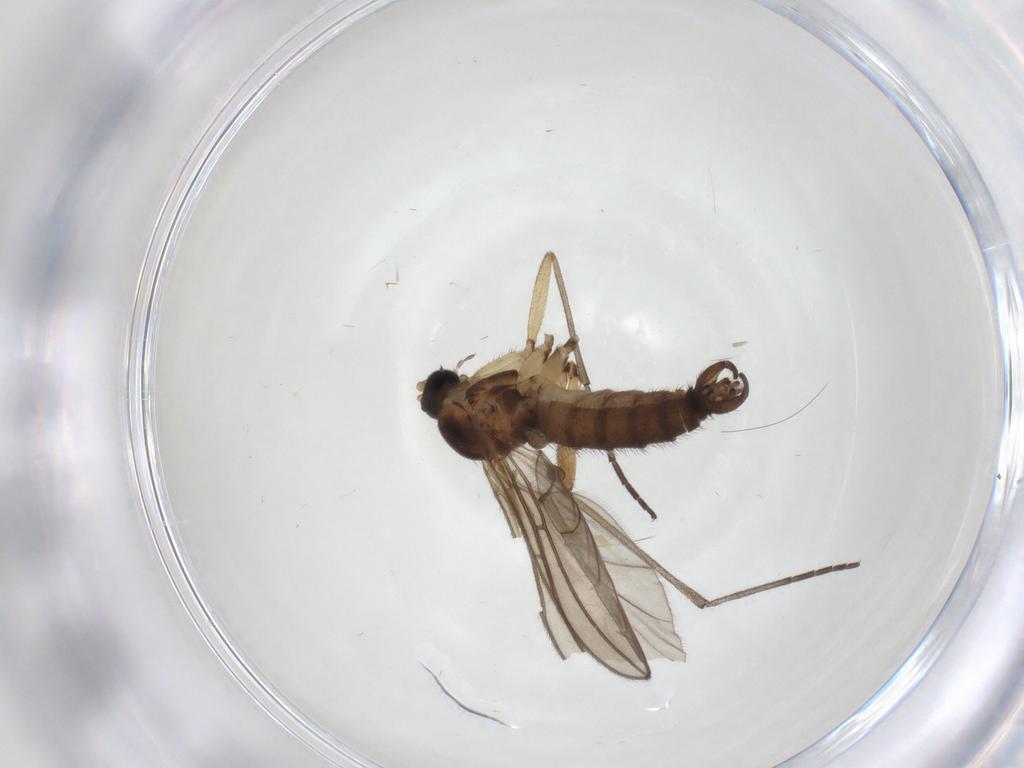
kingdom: Animalia
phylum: Arthropoda
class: Insecta
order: Diptera
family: Sciaridae
